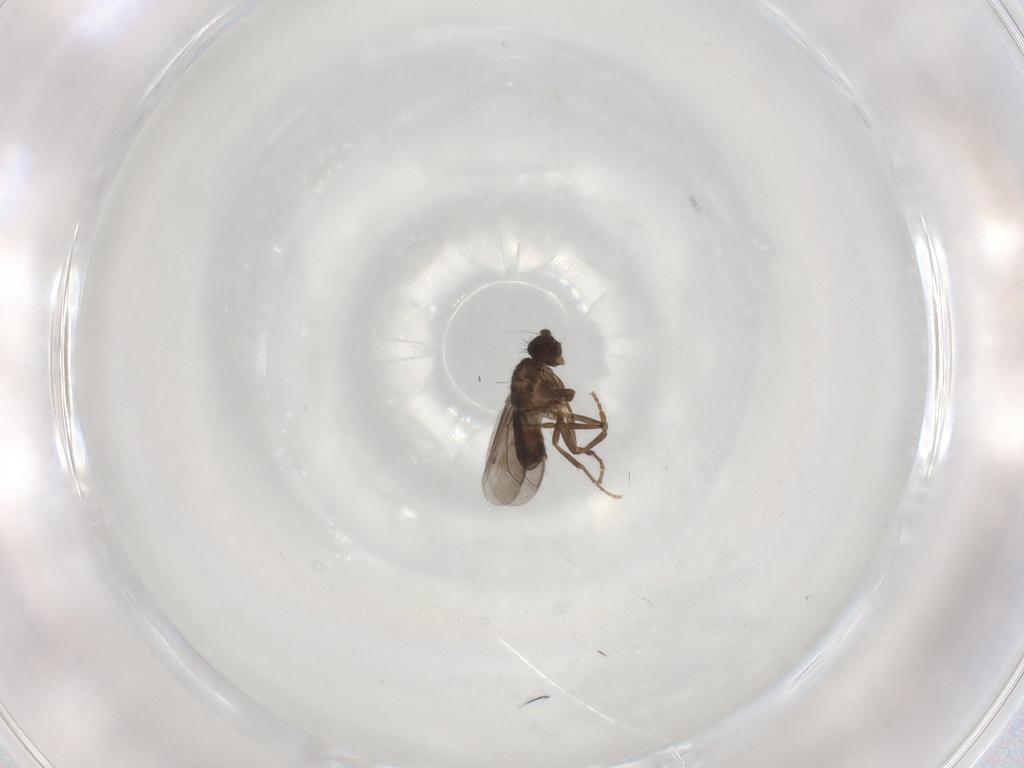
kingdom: Animalia
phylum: Arthropoda
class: Insecta
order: Diptera
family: Sphaeroceridae
